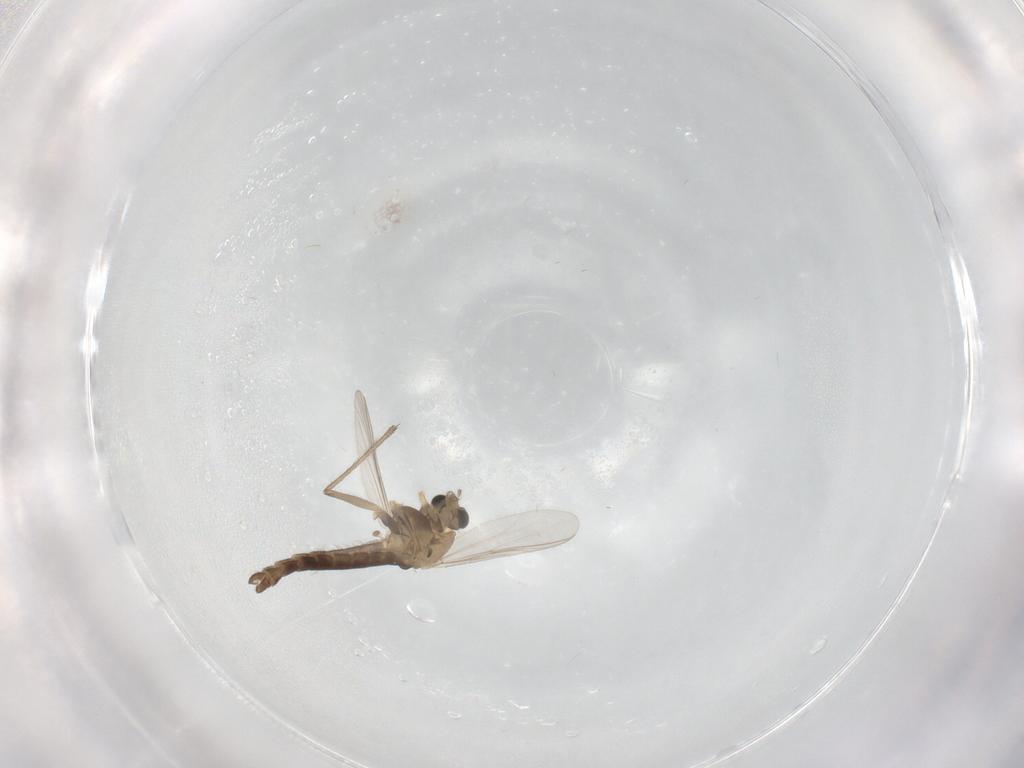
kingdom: Animalia
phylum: Arthropoda
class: Insecta
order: Diptera
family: Chironomidae
